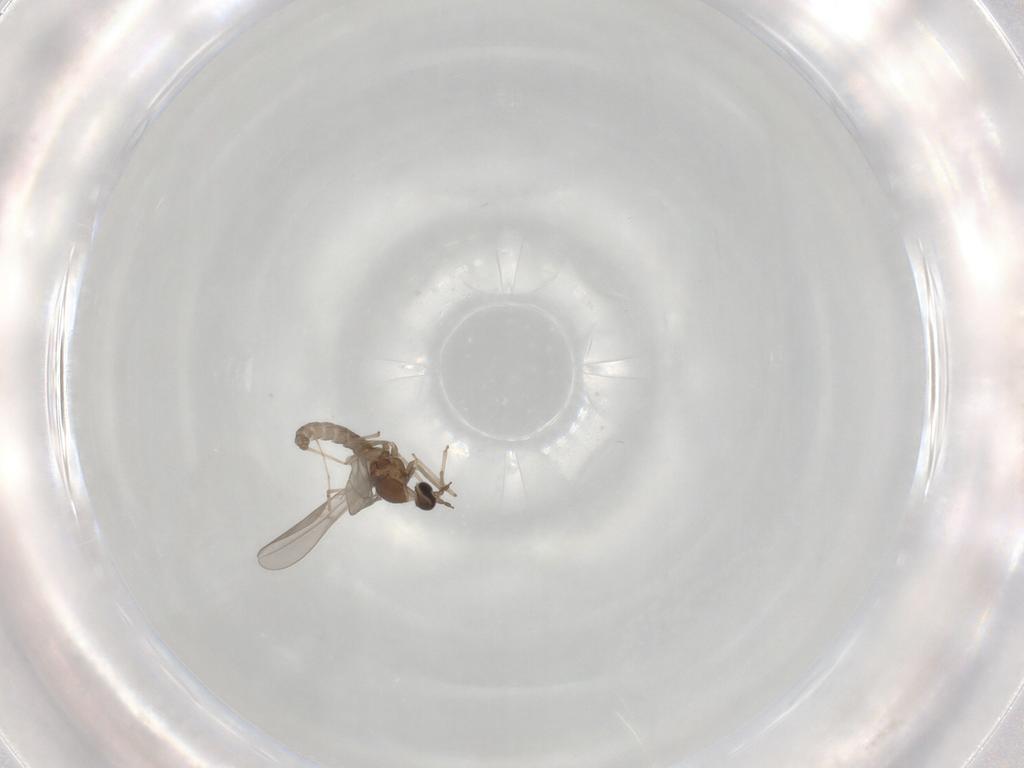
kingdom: Animalia
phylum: Arthropoda
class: Insecta
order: Diptera
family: Cecidomyiidae
